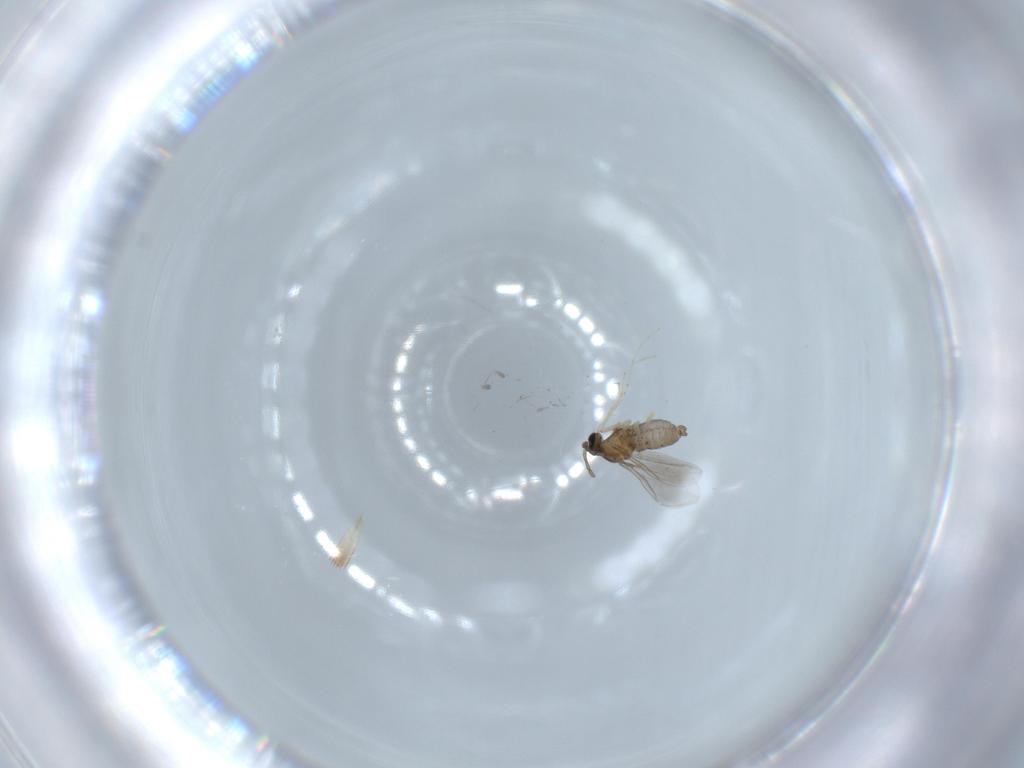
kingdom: Animalia
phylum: Arthropoda
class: Insecta
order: Diptera
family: Cecidomyiidae
